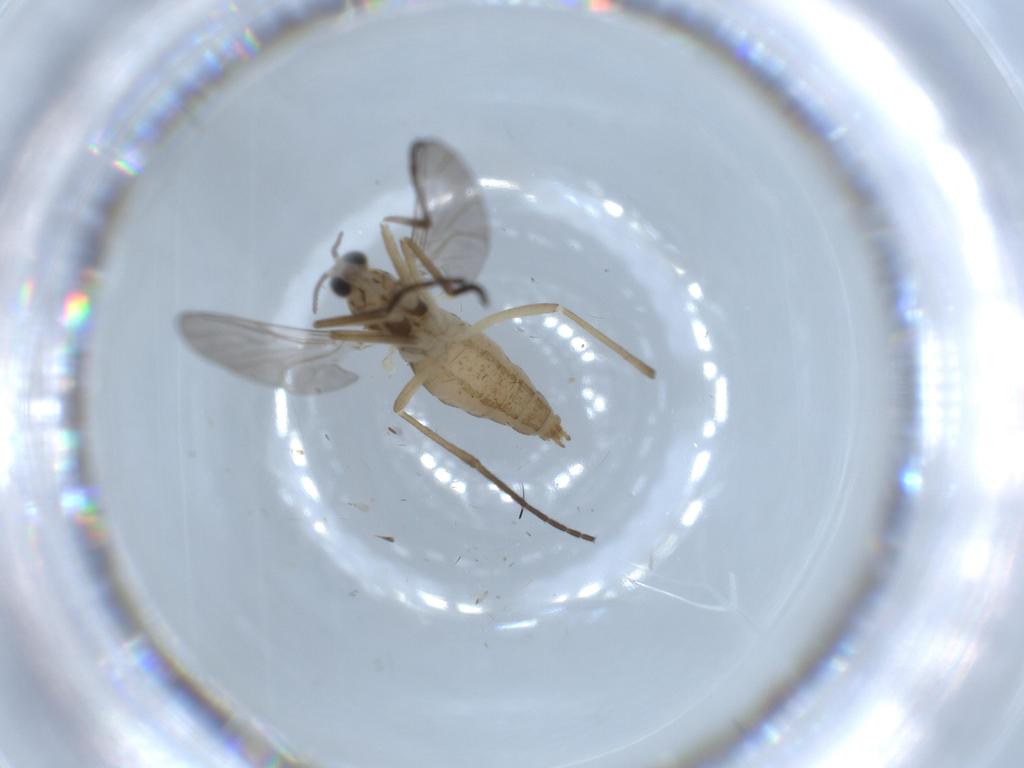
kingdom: Animalia
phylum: Arthropoda
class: Insecta
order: Diptera
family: Cecidomyiidae
